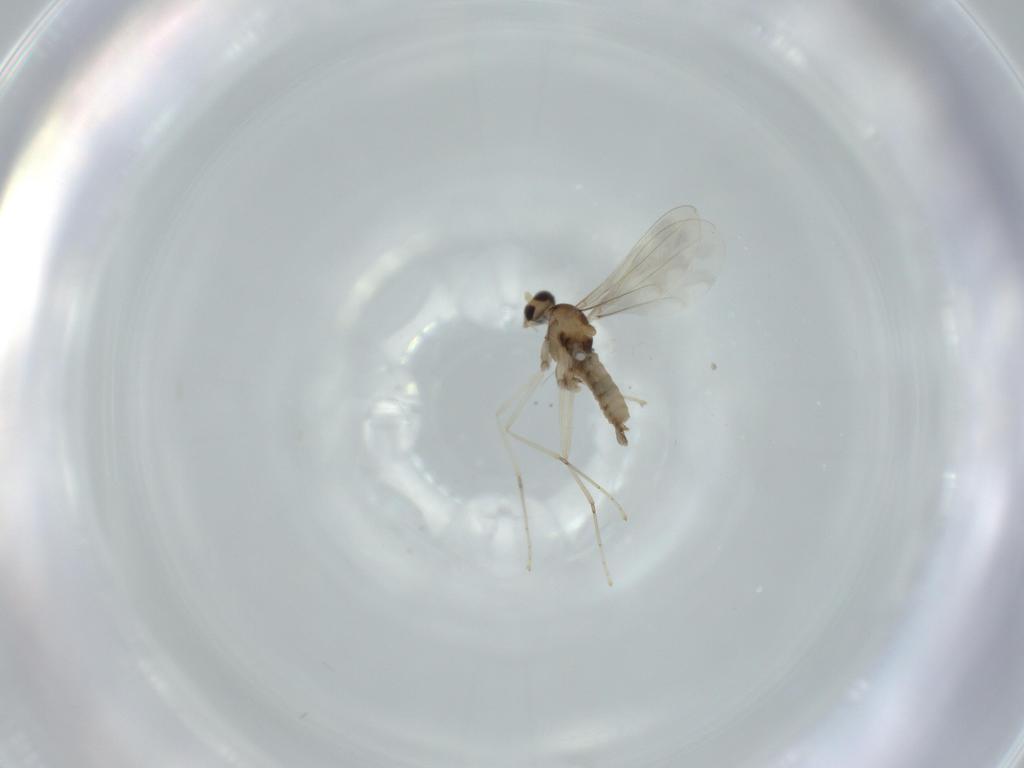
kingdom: Animalia
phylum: Arthropoda
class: Insecta
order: Diptera
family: Cecidomyiidae
